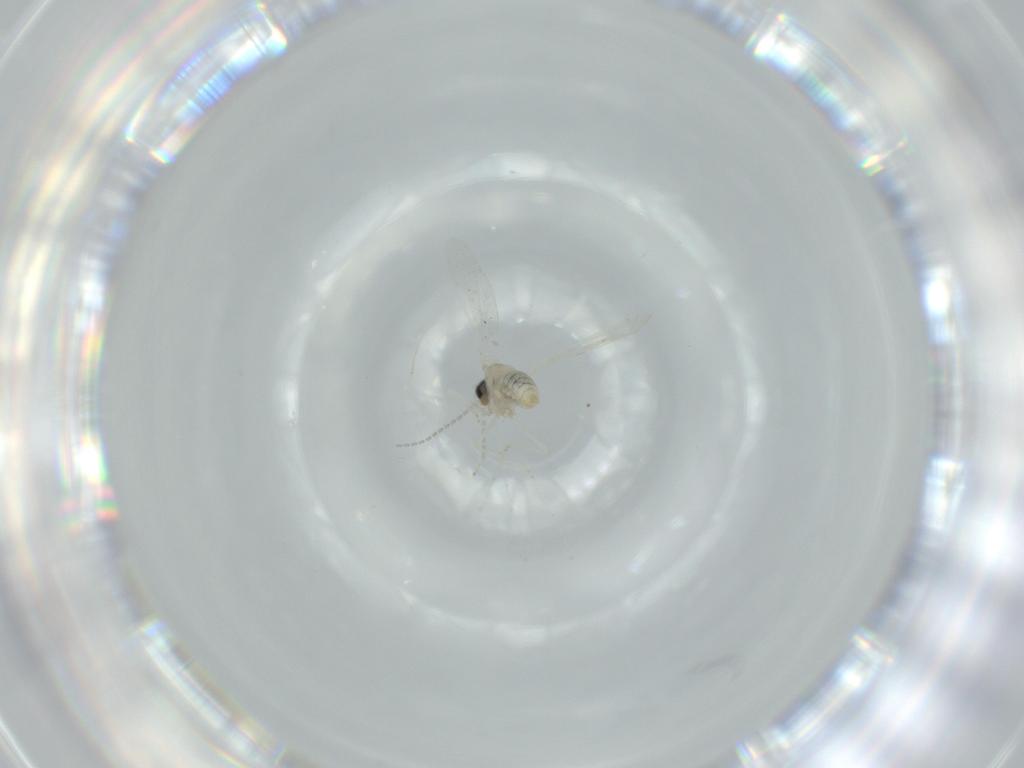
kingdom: Animalia
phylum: Arthropoda
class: Insecta
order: Diptera
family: Cecidomyiidae
